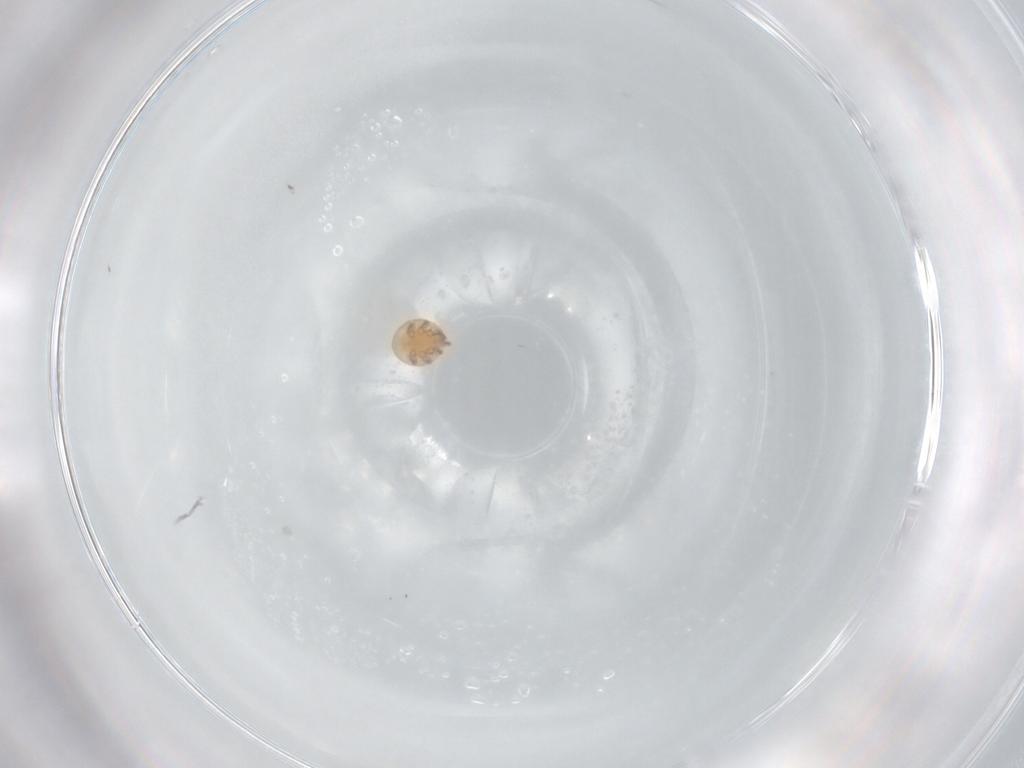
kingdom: Animalia
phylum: Arthropoda
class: Arachnida
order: Mesostigmata
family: Trematuridae
